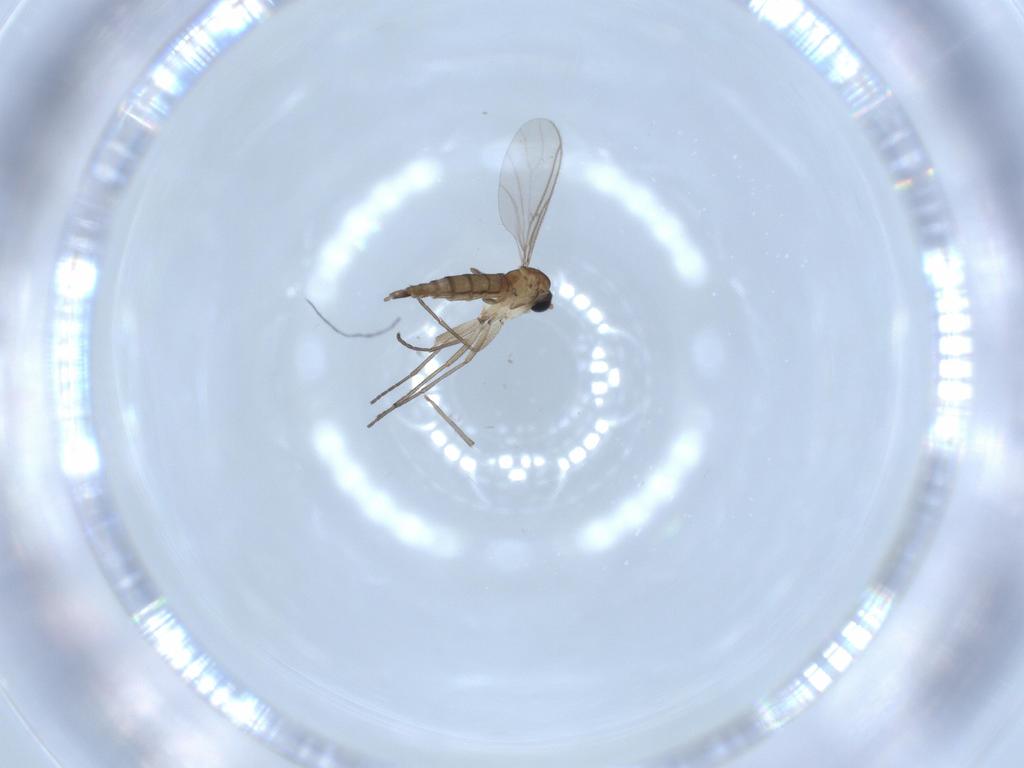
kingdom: Animalia
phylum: Arthropoda
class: Insecta
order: Diptera
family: Sciaridae
